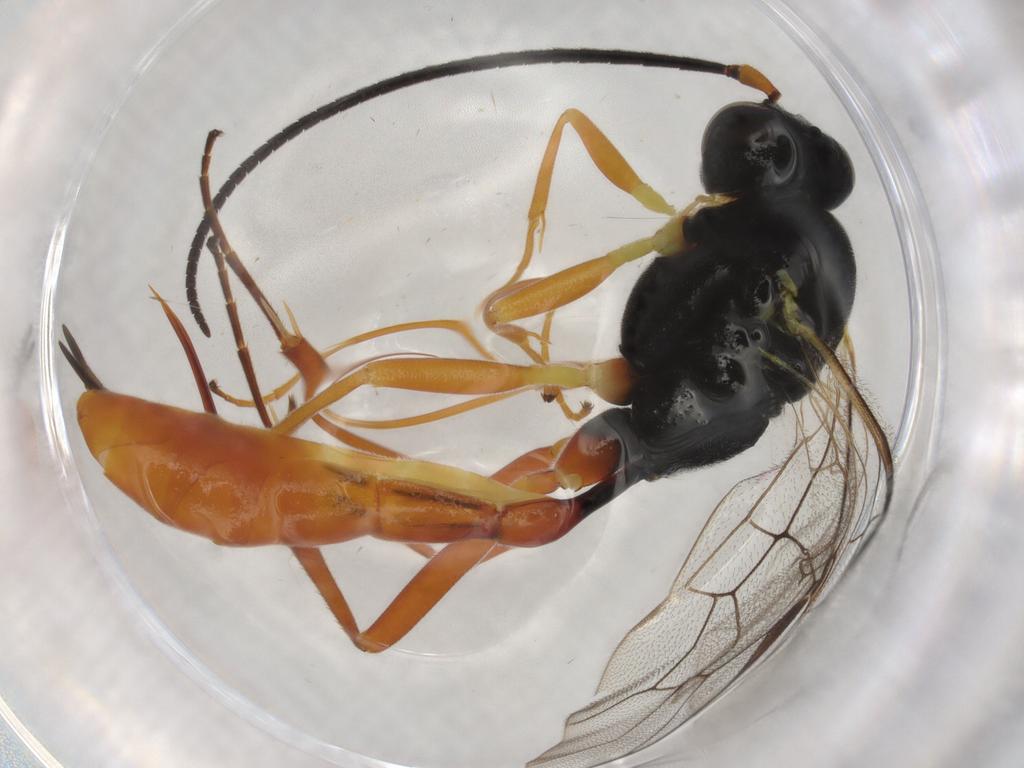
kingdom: Animalia
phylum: Arthropoda
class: Insecta
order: Hymenoptera
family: Ichneumonidae
